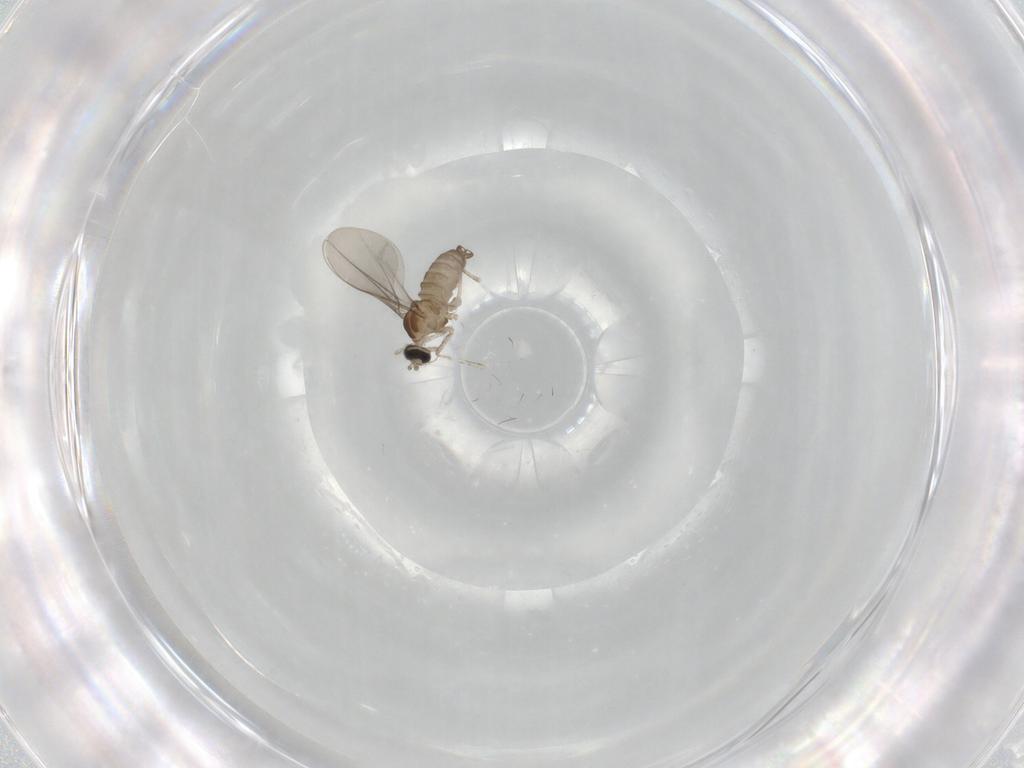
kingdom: Animalia
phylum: Arthropoda
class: Insecta
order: Diptera
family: Cecidomyiidae
